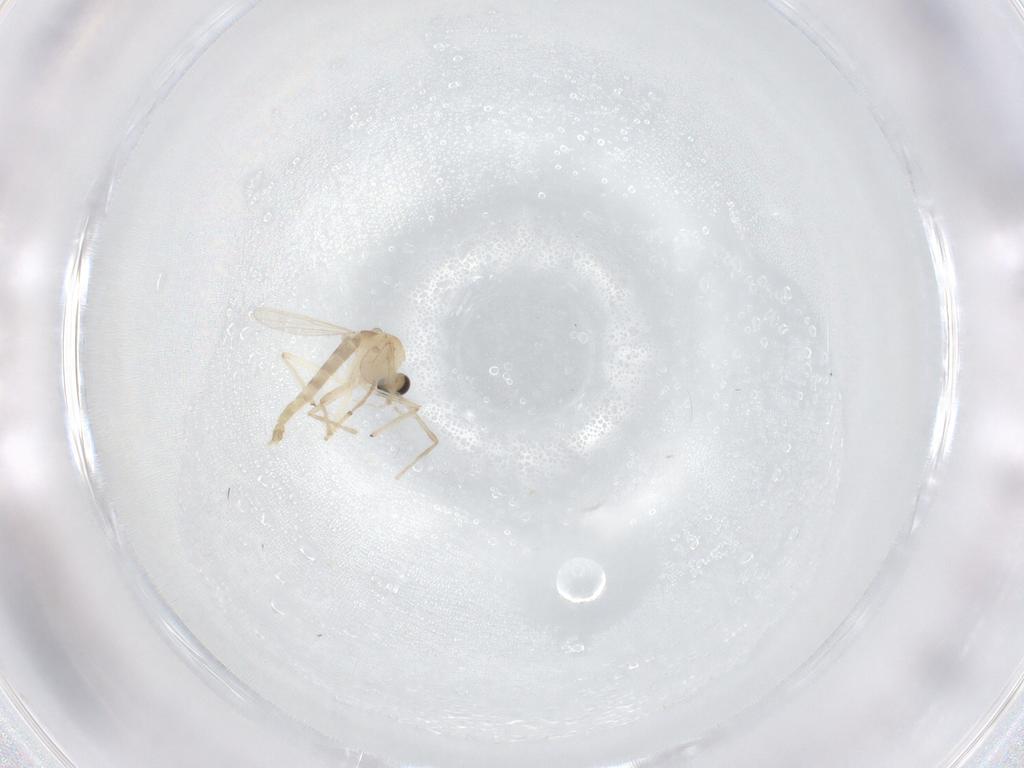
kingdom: Animalia
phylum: Arthropoda
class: Insecta
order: Diptera
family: Chironomidae
